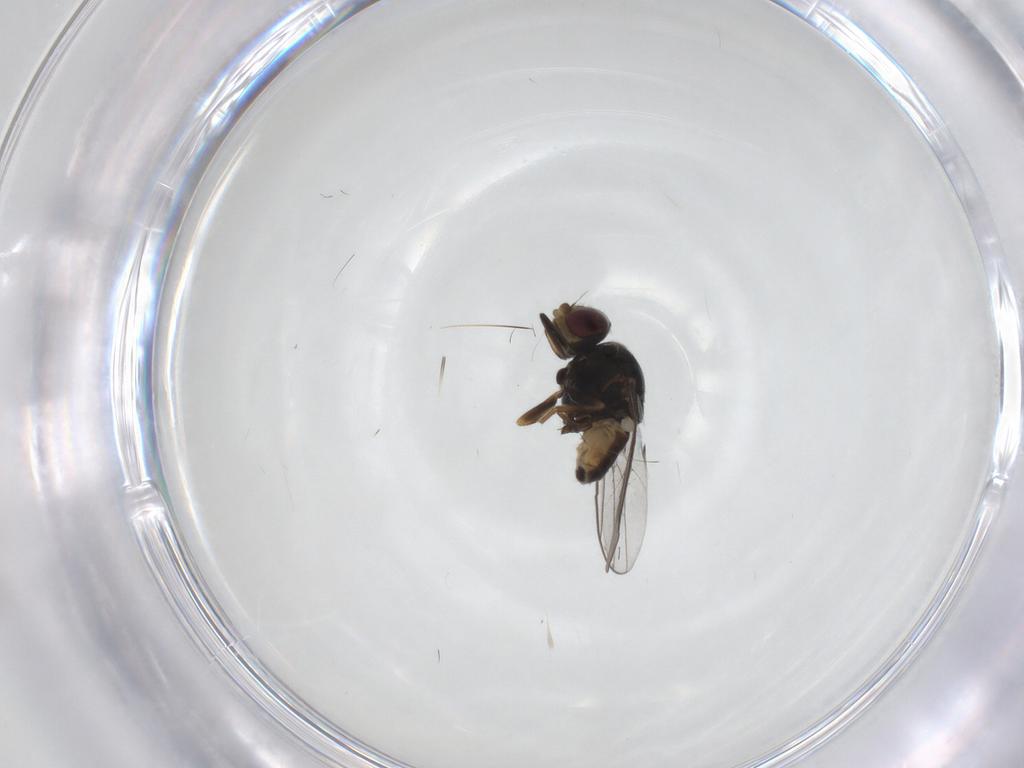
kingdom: Animalia
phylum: Arthropoda
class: Insecta
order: Diptera
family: Chloropidae
